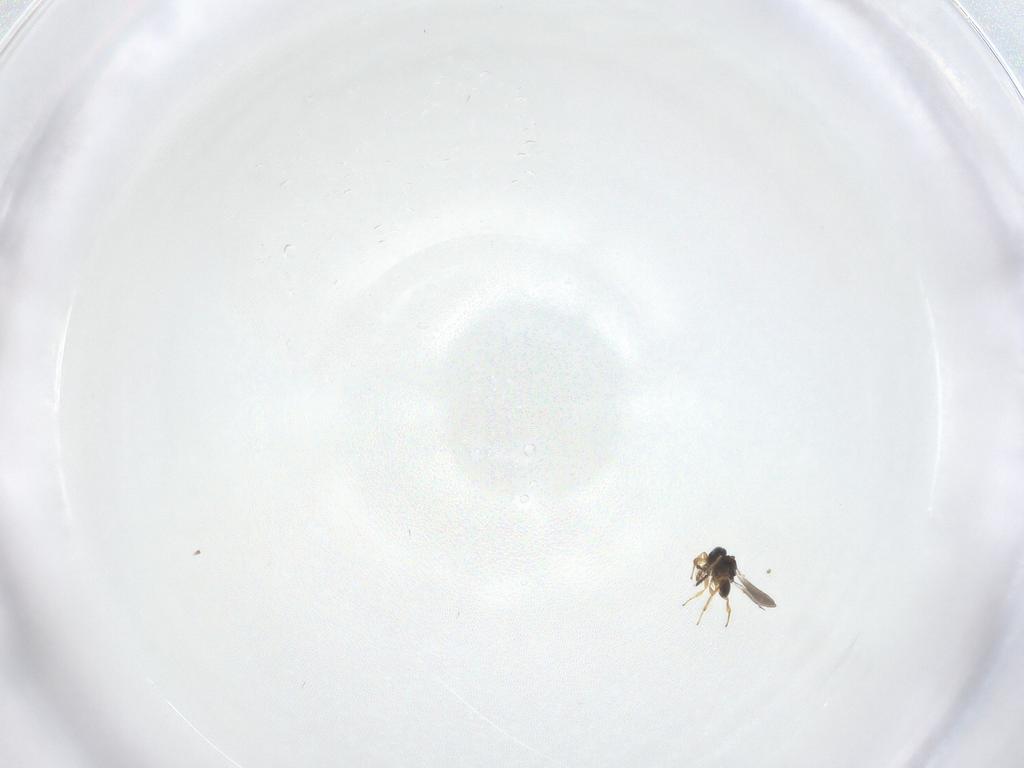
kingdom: Animalia
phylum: Arthropoda
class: Insecta
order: Hymenoptera
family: Platygastridae
